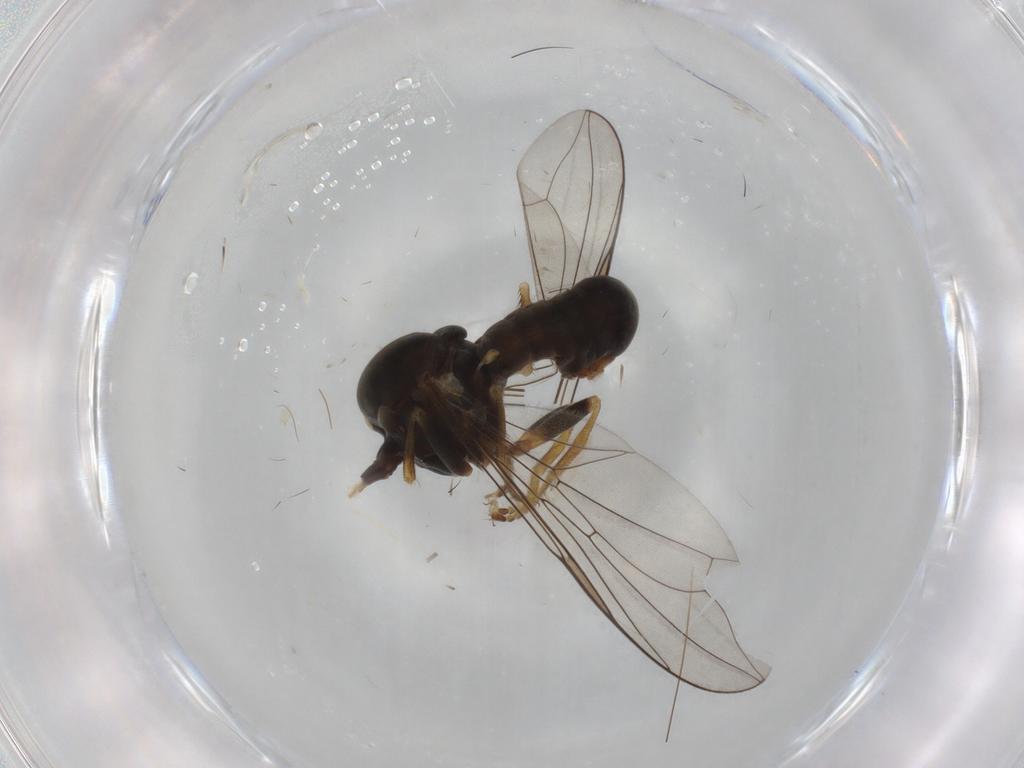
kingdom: Animalia
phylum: Arthropoda
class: Insecta
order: Diptera
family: Pipunculidae
